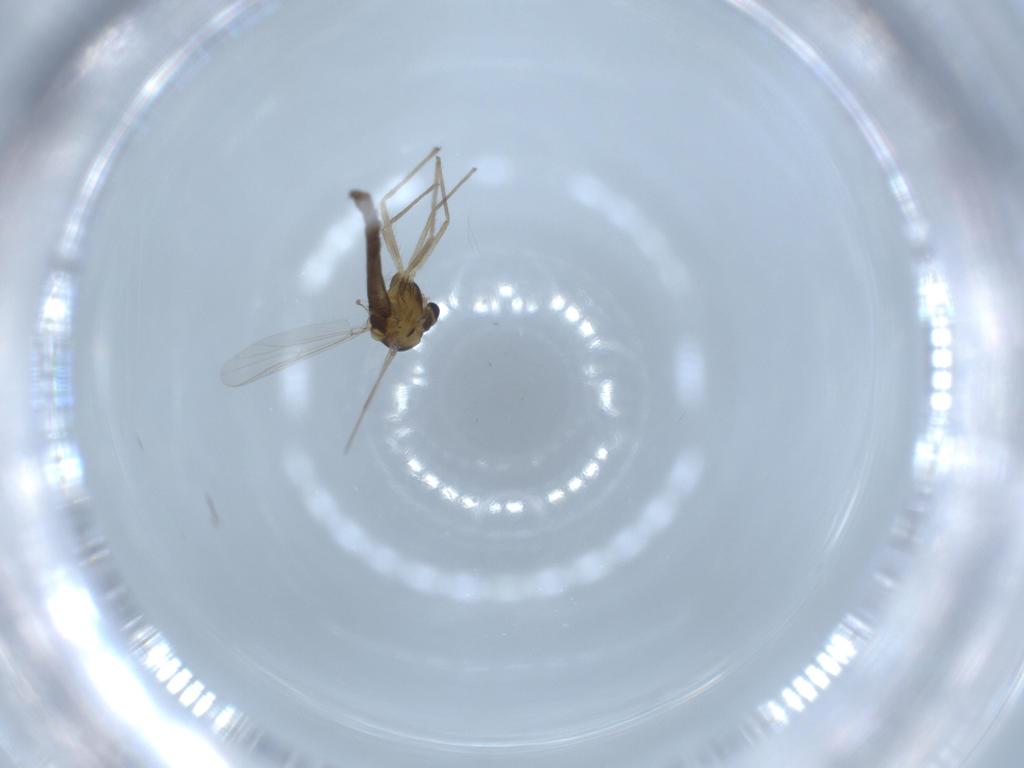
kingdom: Animalia
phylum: Arthropoda
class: Insecta
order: Diptera
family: Chironomidae
